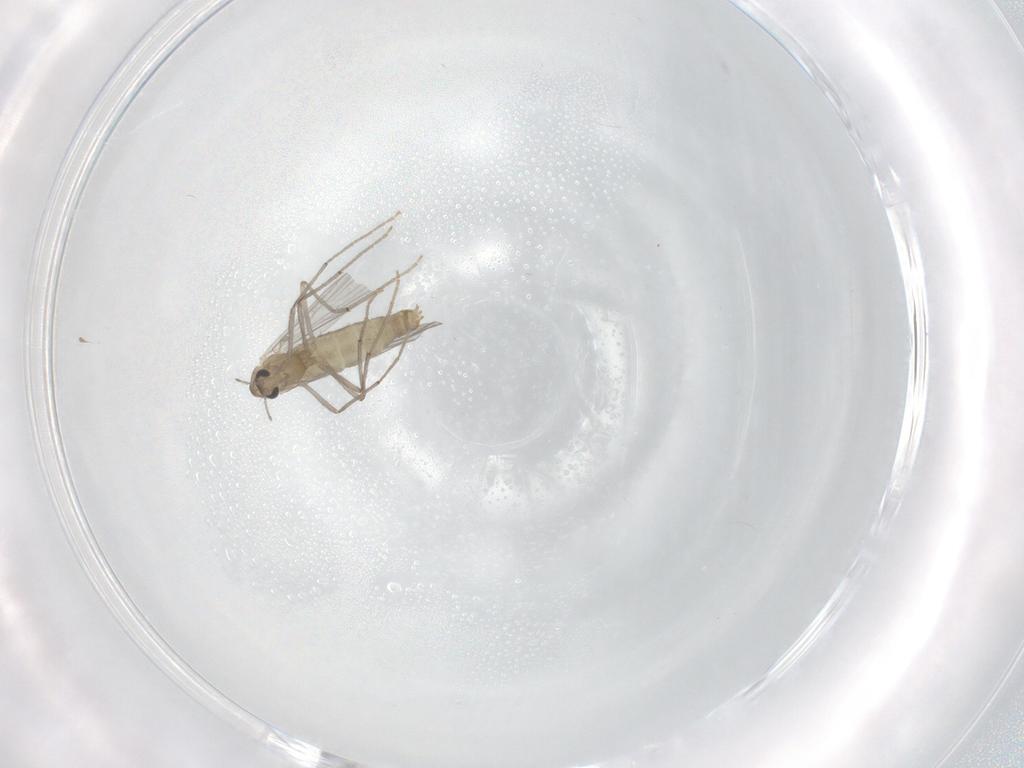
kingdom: Animalia
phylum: Arthropoda
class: Insecta
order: Diptera
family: Chironomidae
